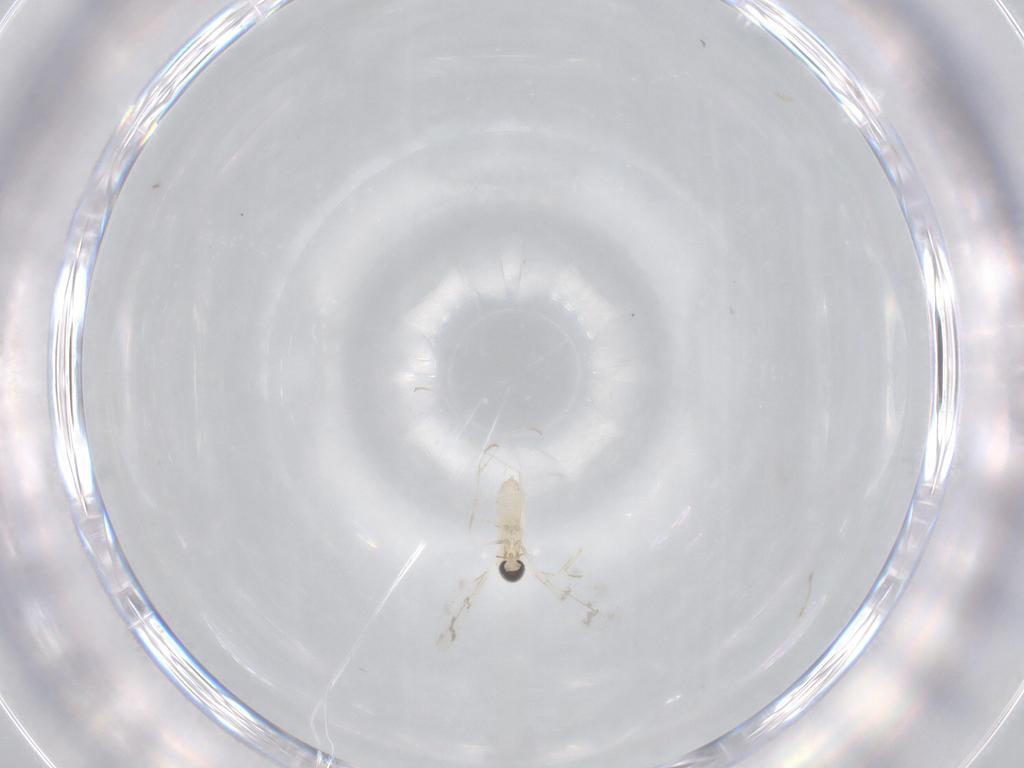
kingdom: Animalia
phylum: Arthropoda
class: Insecta
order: Diptera
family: Cecidomyiidae
